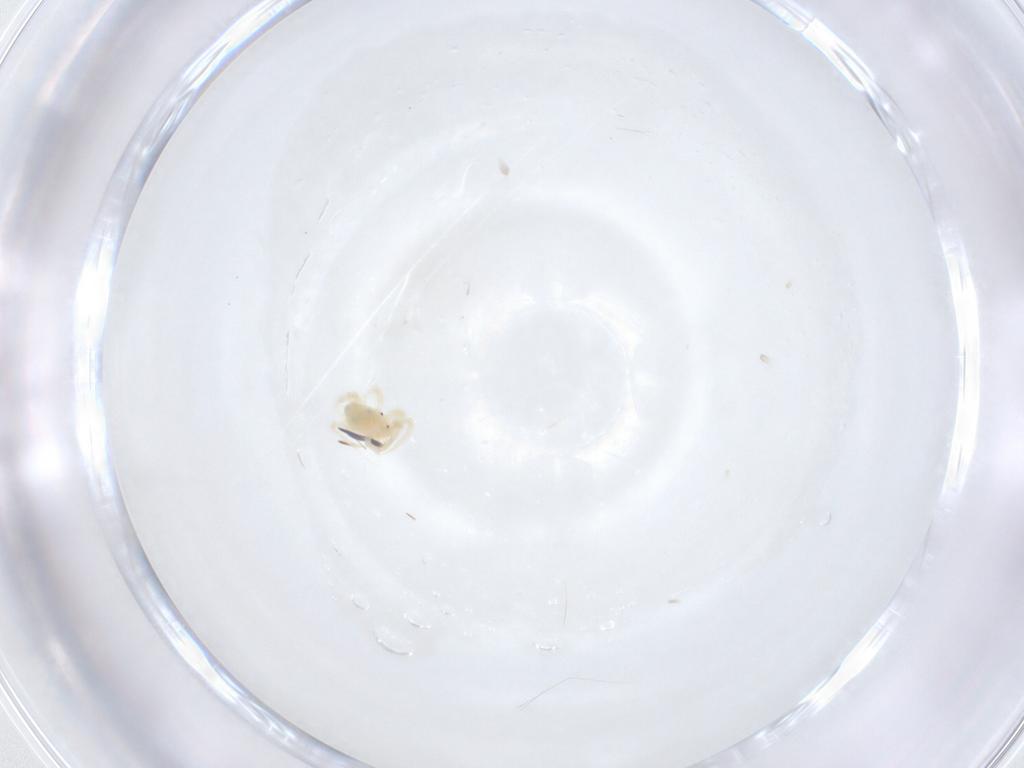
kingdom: Animalia
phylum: Arthropoda
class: Arachnida
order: Trombidiformes
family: Anystidae
